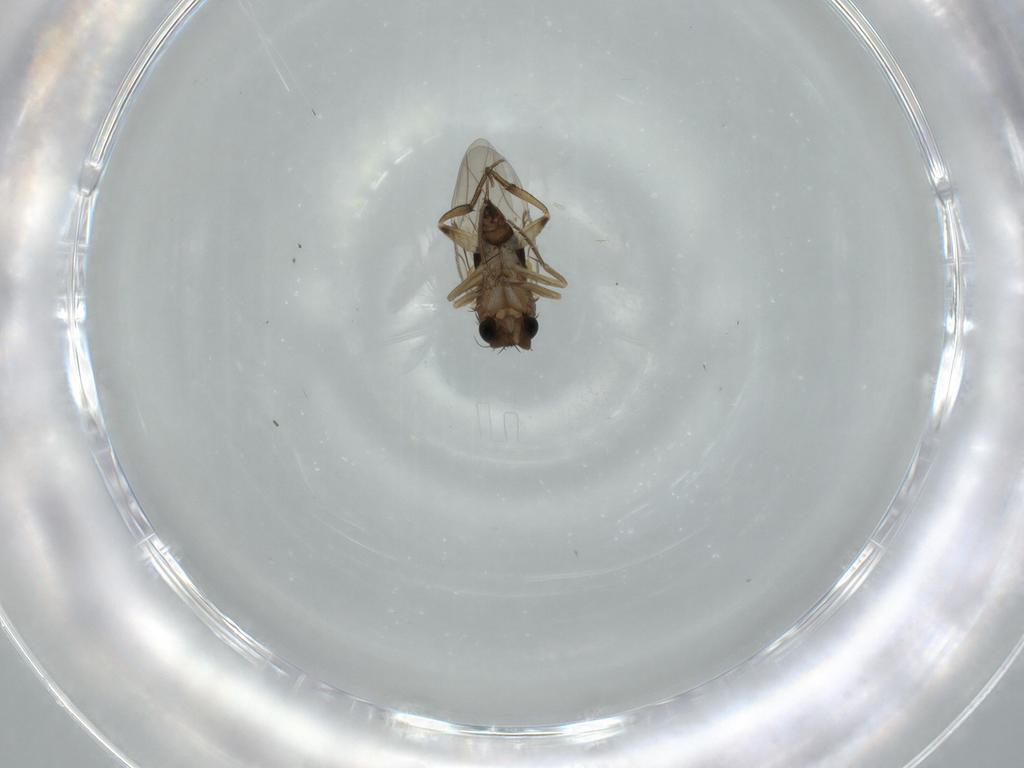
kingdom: Animalia
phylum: Arthropoda
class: Insecta
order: Diptera
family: Phoridae
